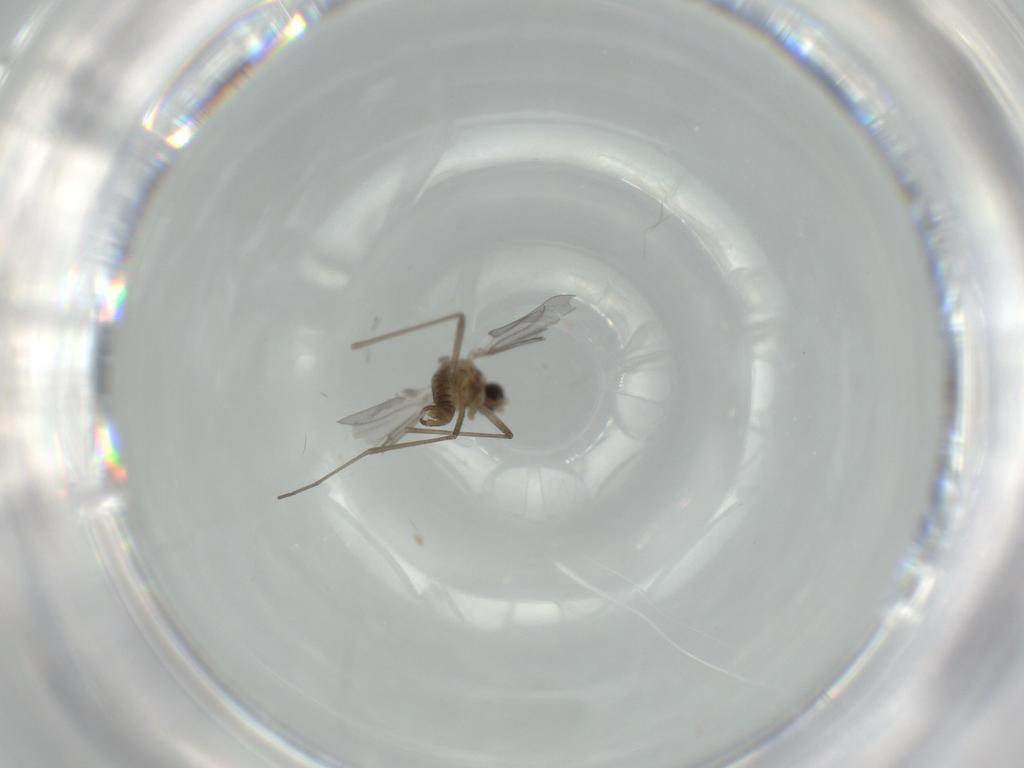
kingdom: Animalia
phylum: Arthropoda
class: Insecta
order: Diptera
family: Cecidomyiidae
